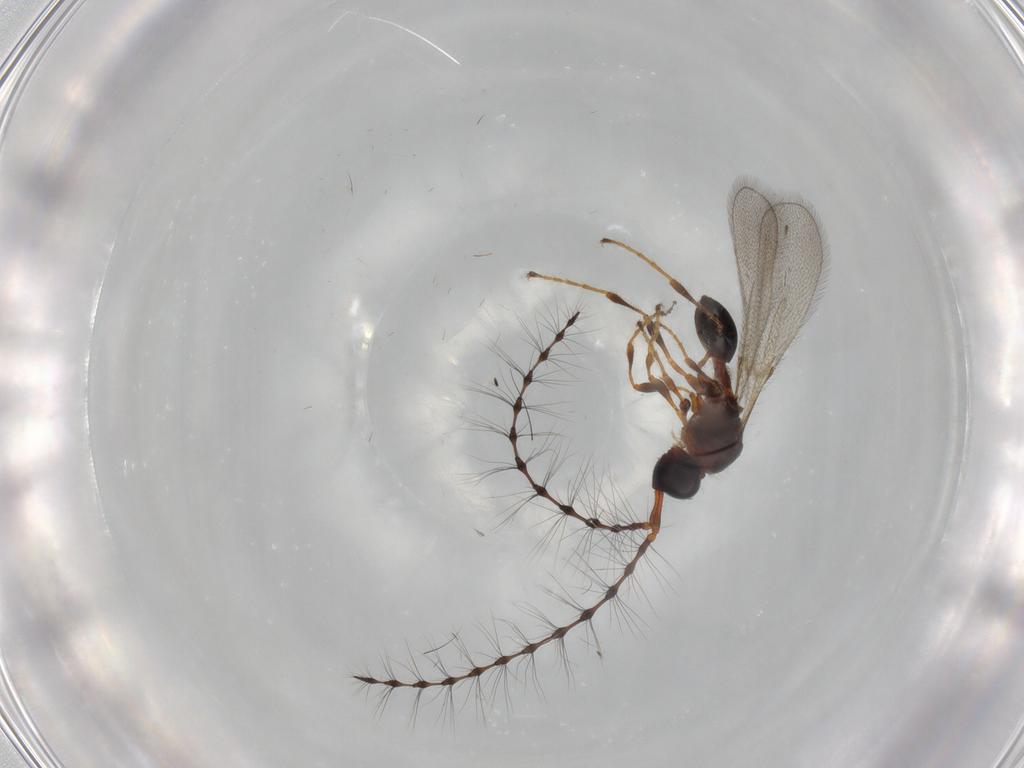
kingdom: Animalia
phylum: Arthropoda
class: Insecta
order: Hymenoptera
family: Diapriidae
